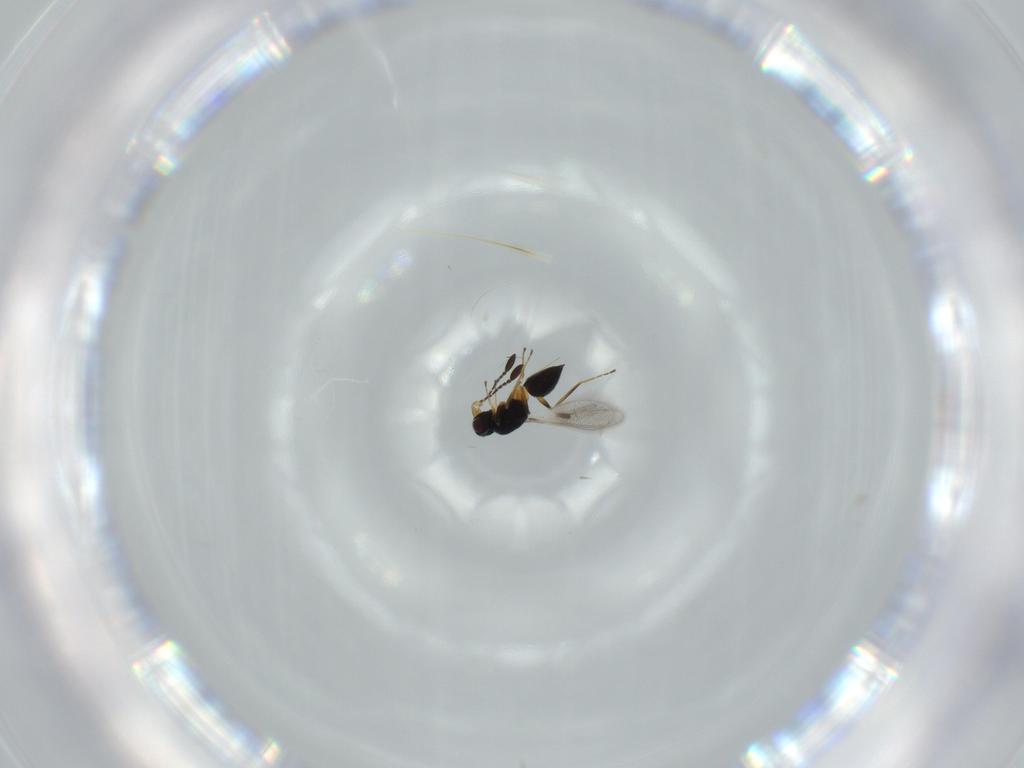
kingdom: Animalia
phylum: Arthropoda
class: Insecta
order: Hymenoptera
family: Mymaridae
